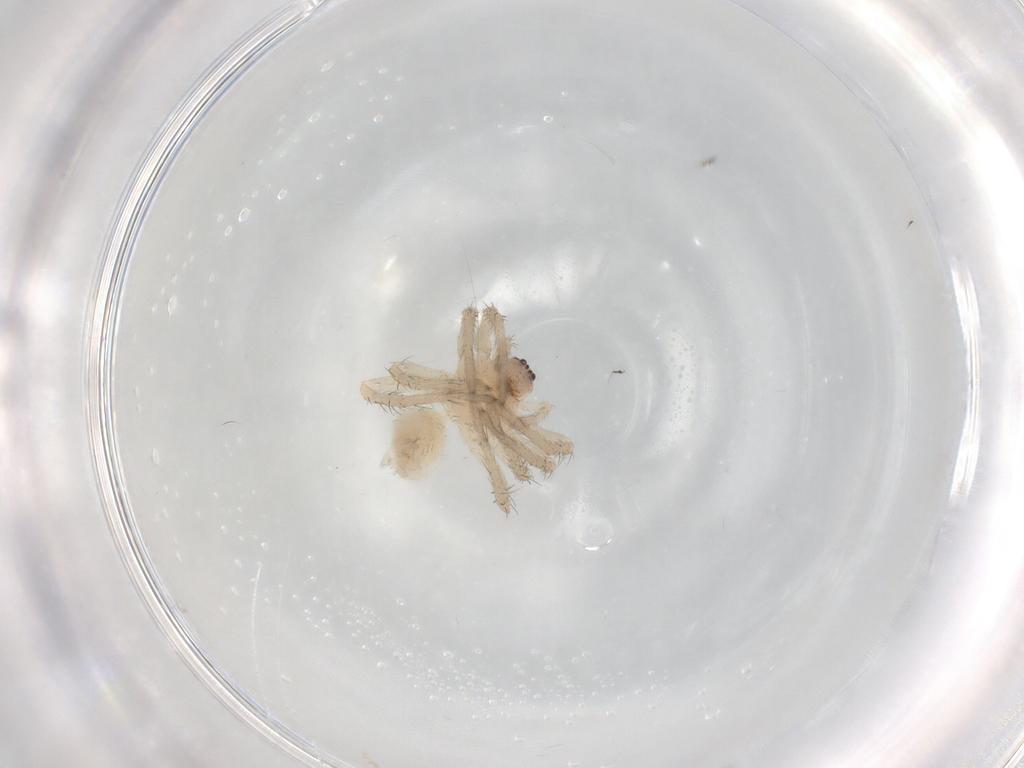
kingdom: Animalia
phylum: Arthropoda
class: Arachnida
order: Araneae
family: Anyphaenidae
